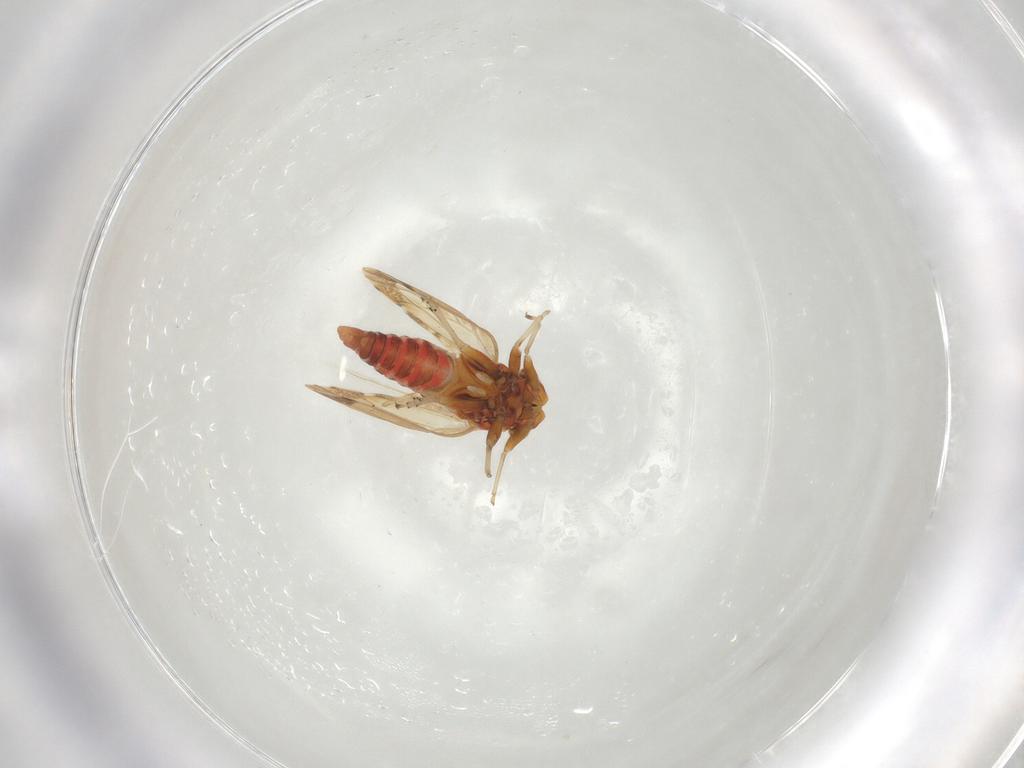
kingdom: Animalia
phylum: Arthropoda
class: Insecta
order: Hemiptera
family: Psyllidae
